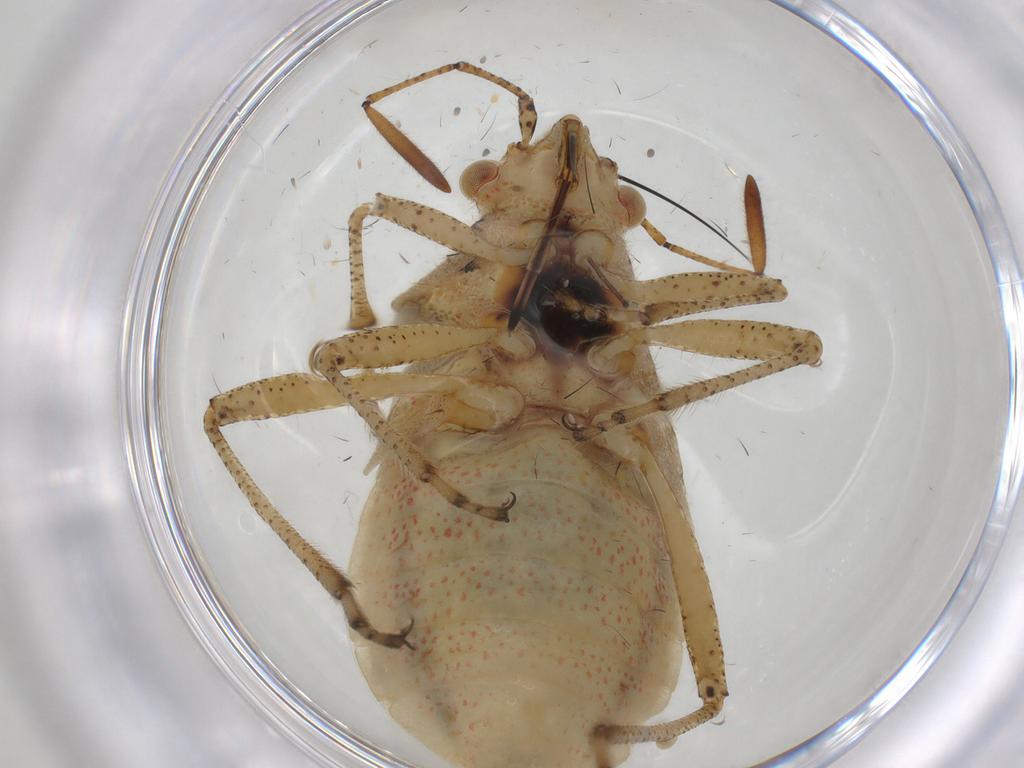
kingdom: Animalia
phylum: Arthropoda
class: Insecta
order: Hemiptera
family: Rhopalidae
